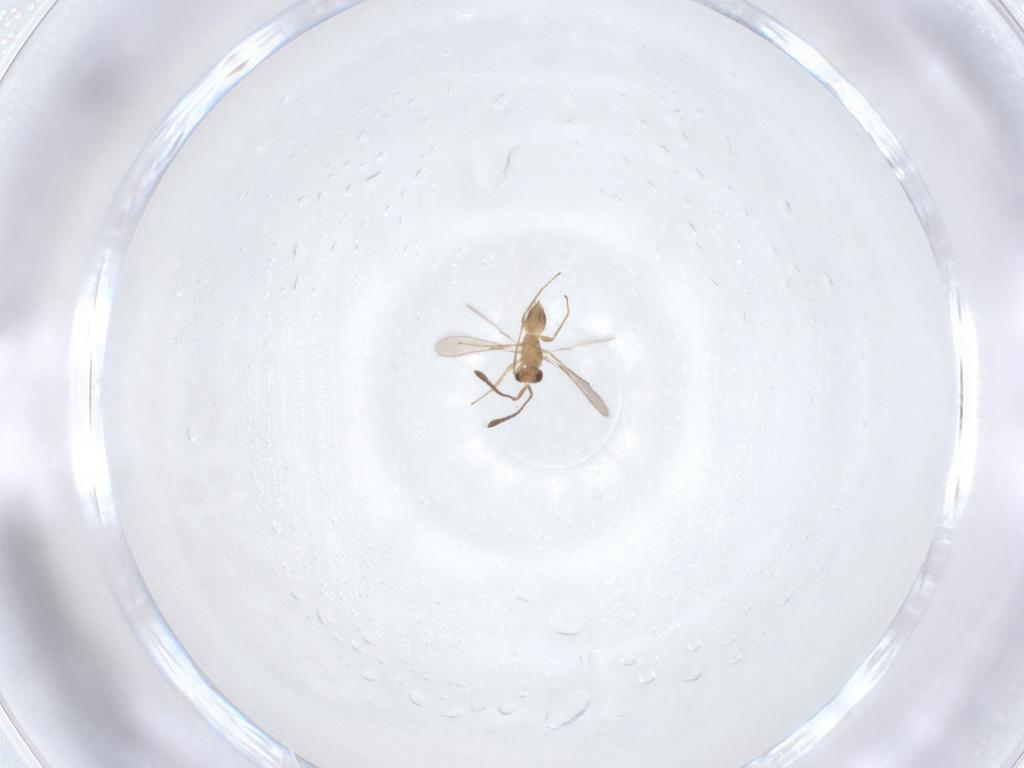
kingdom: Animalia
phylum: Arthropoda
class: Insecta
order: Hymenoptera
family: Mymaridae
